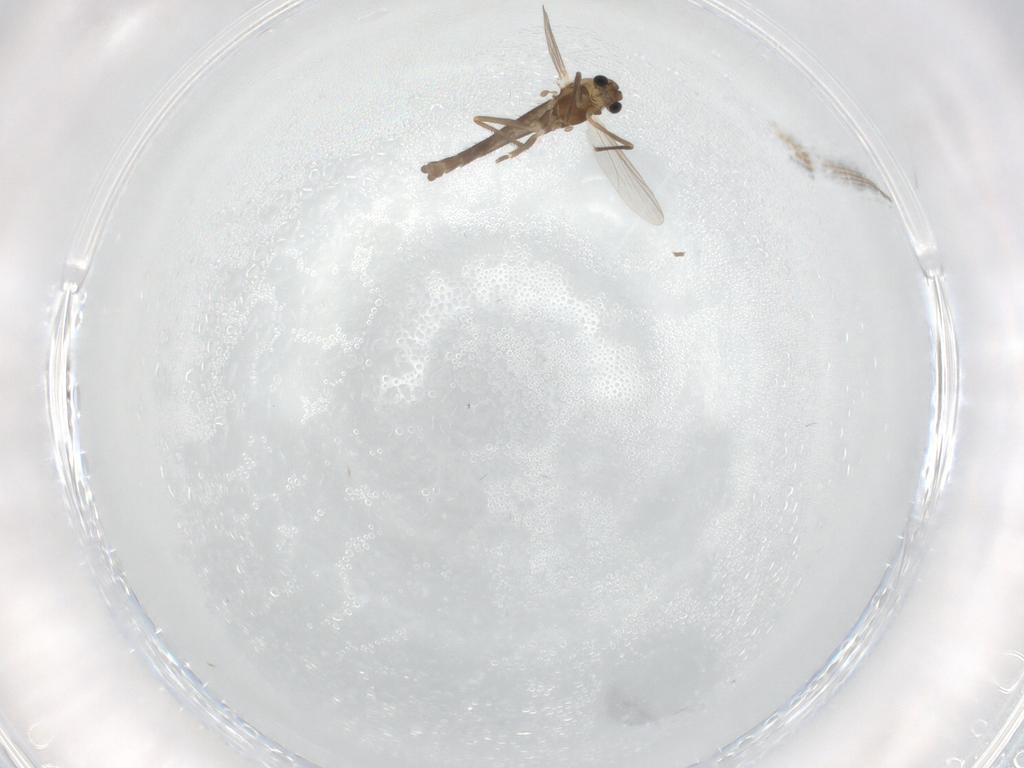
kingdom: Animalia
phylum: Arthropoda
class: Insecta
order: Diptera
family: Chironomidae
